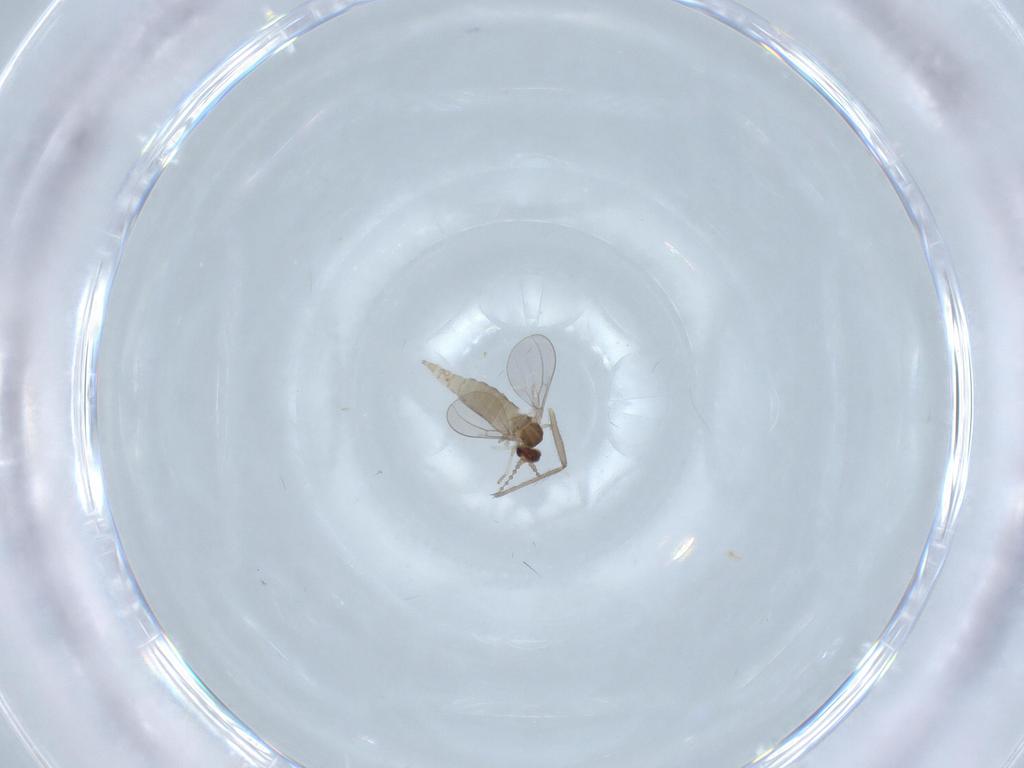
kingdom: Animalia
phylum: Arthropoda
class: Insecta
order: Diptera
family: Cecidomyiidae
